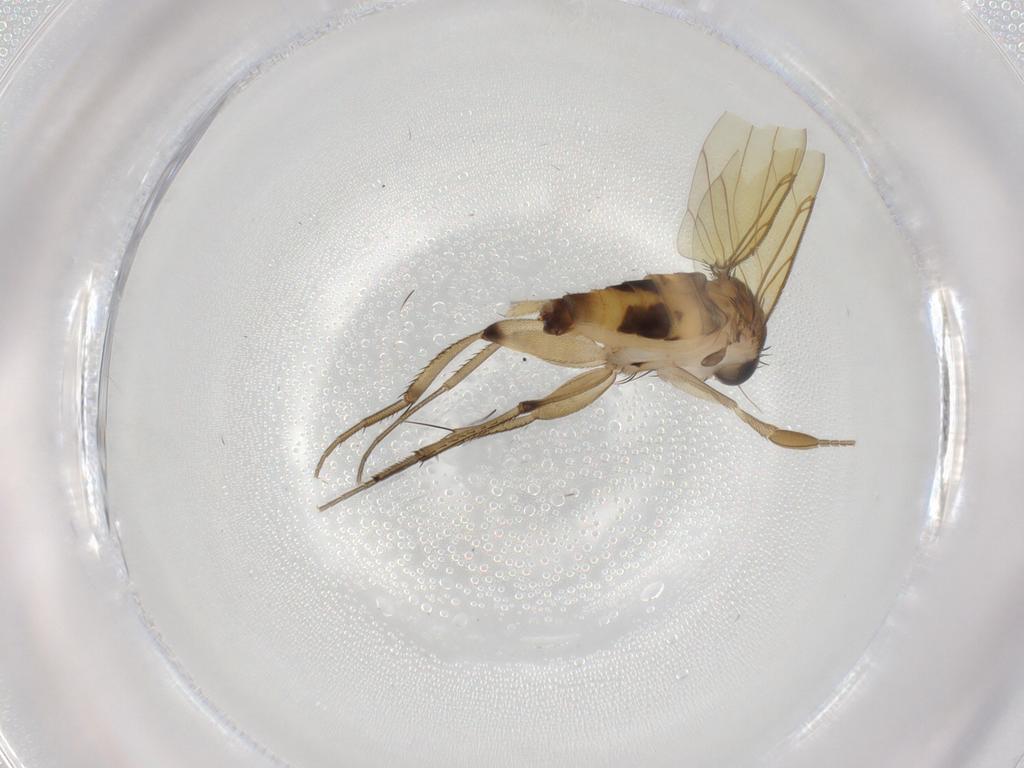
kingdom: Animalia
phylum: Arthropoda
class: Insecta
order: Diptera
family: Phoridae
